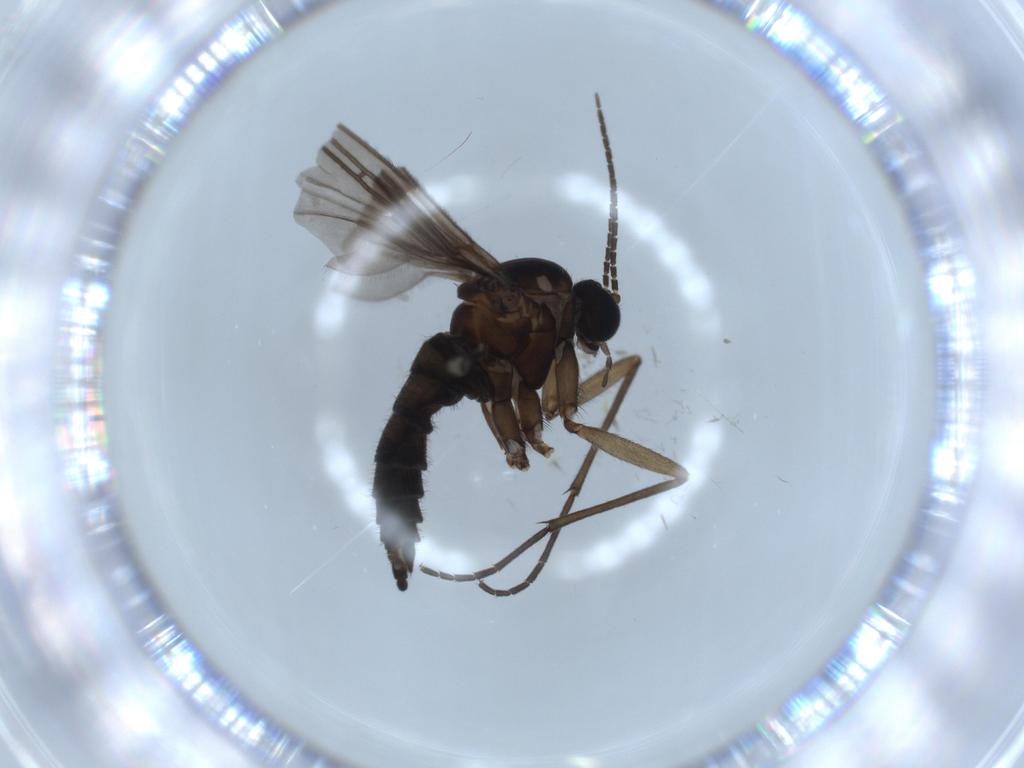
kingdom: Animalia
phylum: Arthropoda
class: Insecta
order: Diptera
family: Sciaridae
